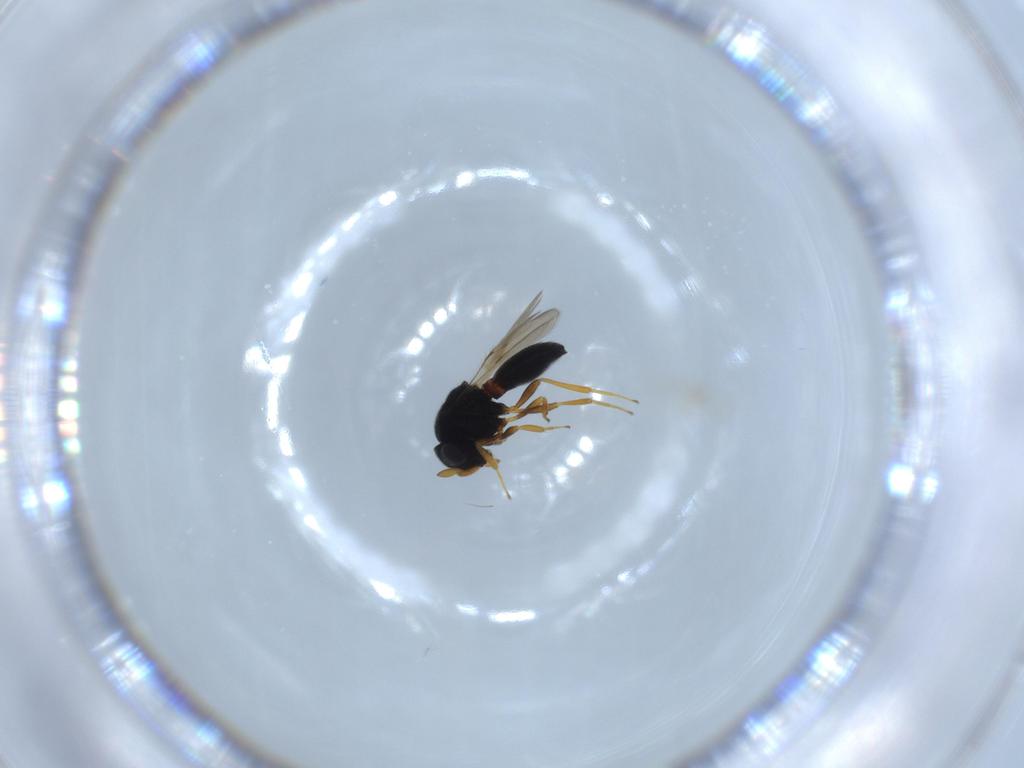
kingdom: Animalia
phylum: Arthropoda
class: Insecta
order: Hymenoptera
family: Scelionidae
